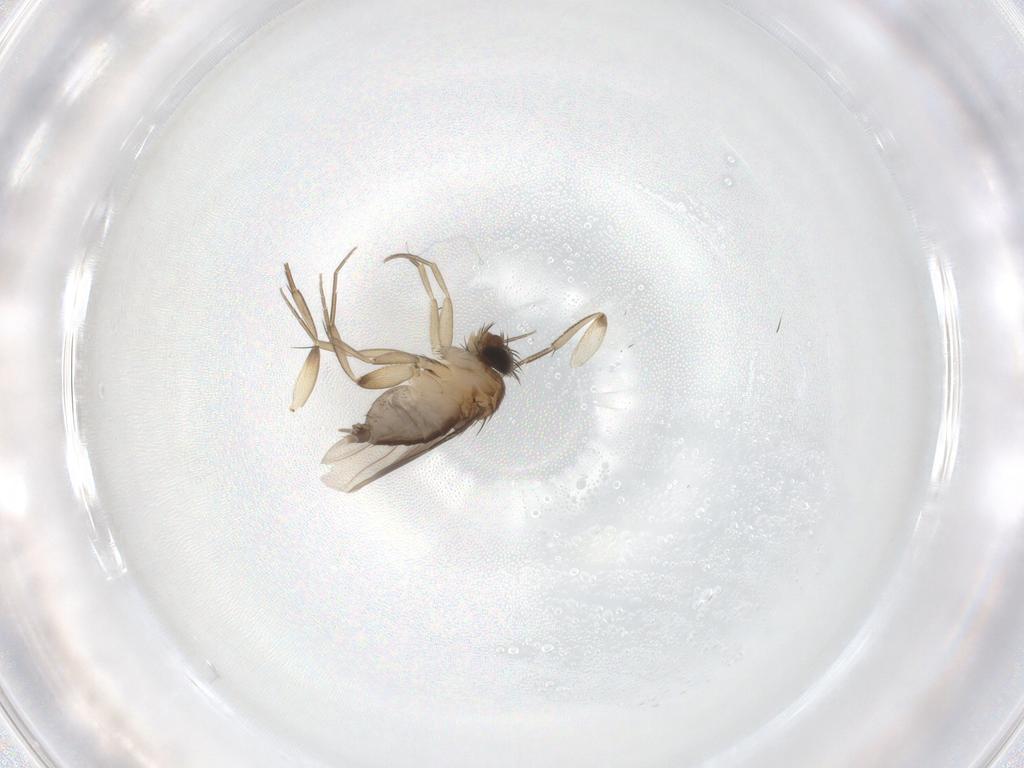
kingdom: Animalia
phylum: Arthropoda
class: Insecta
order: Diptera
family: Phoridae
